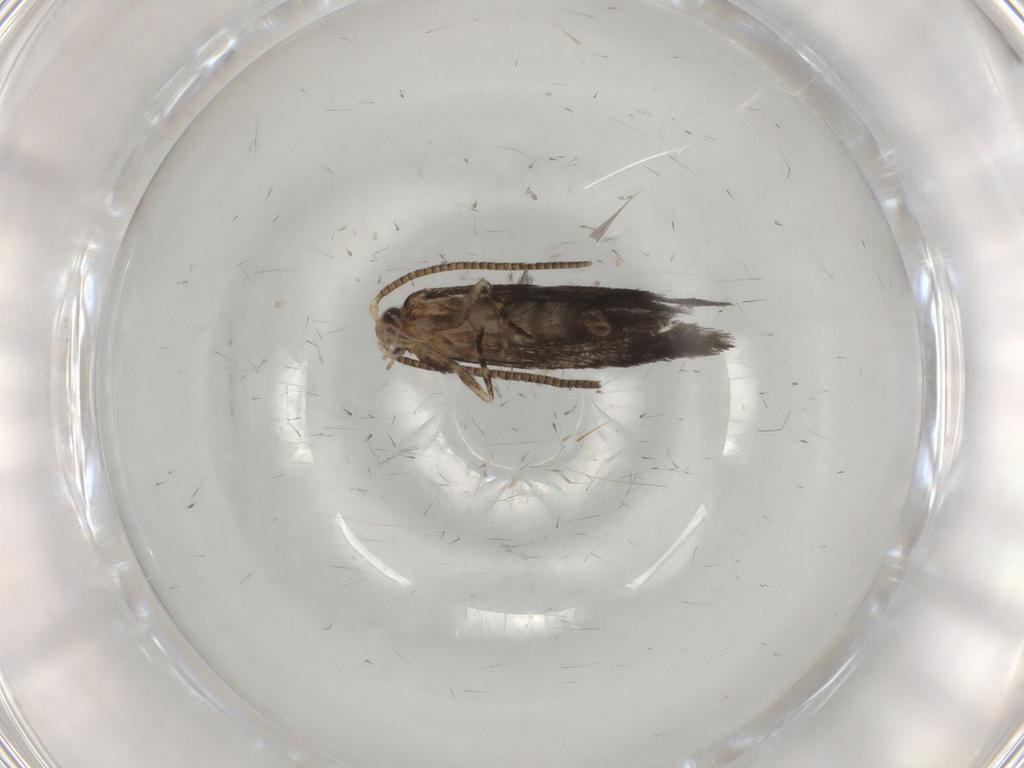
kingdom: Animalia
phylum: Arthropoda
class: Insecta
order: Lepidoptera
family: Tineidae
